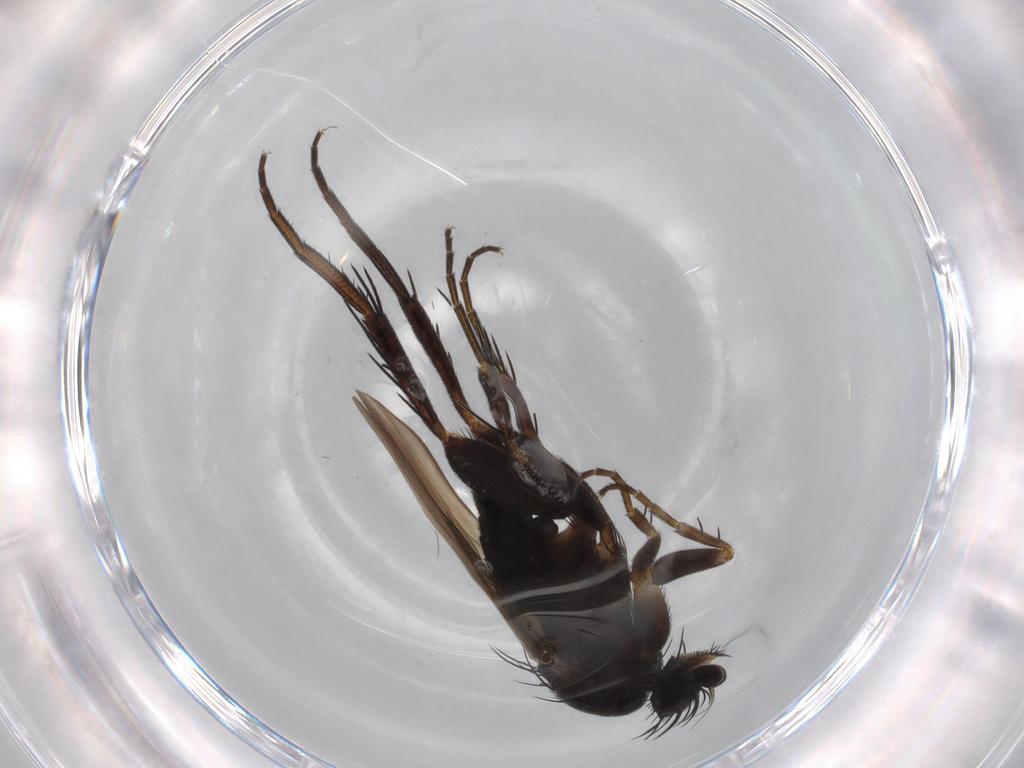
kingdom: Animalia
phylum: Arthropoda
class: Insecta
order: Diptera
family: Phoridae
